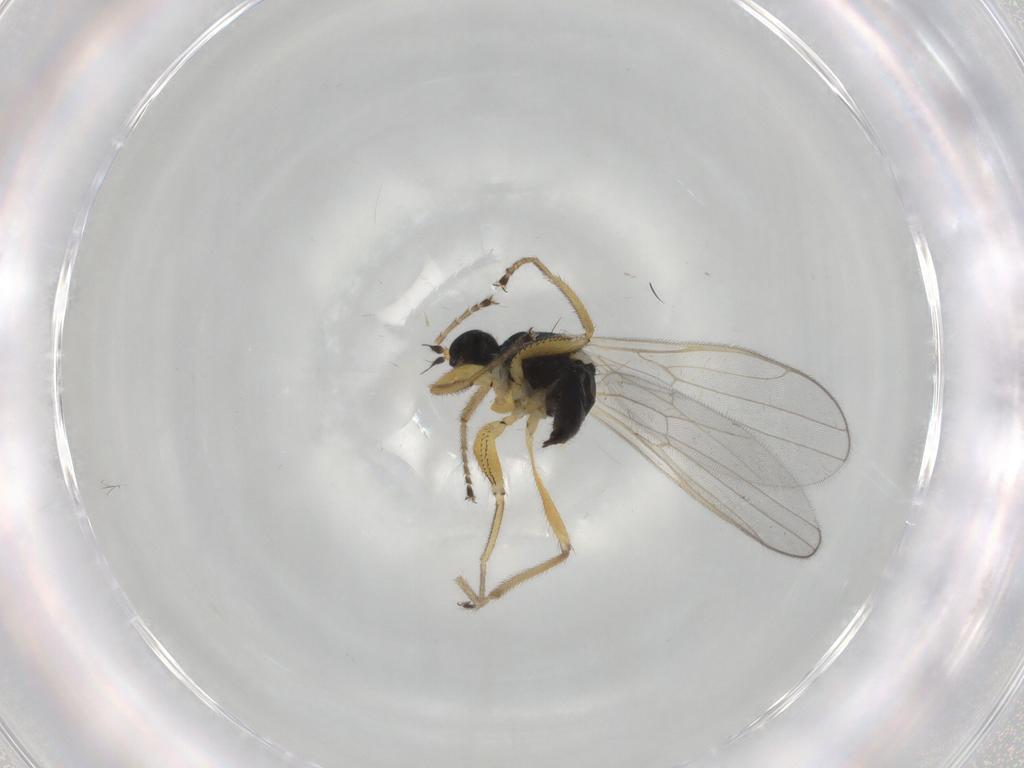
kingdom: Animalia
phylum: Arthropoda
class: Insecta
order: Diptera
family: Hybotidae
